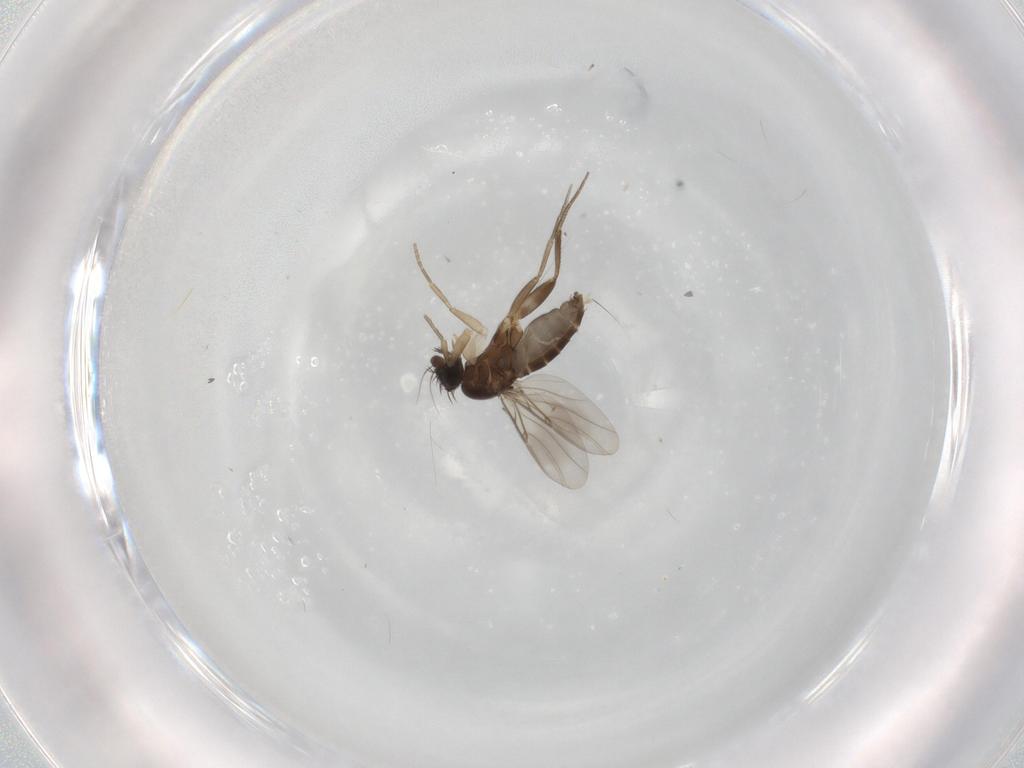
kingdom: Animalia
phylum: Arthropoda
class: Insecta
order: Diptera
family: Phoridae
